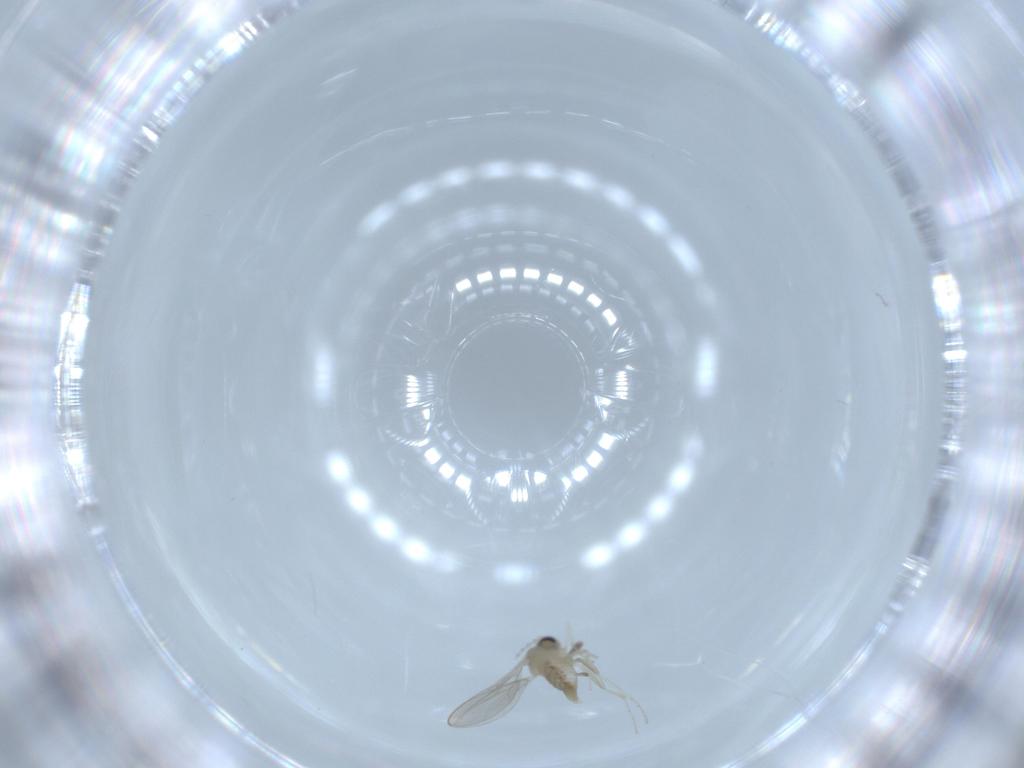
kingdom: Animalia
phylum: Arthropoda
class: Insecta
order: Diptera
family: Cecidomyiidae
